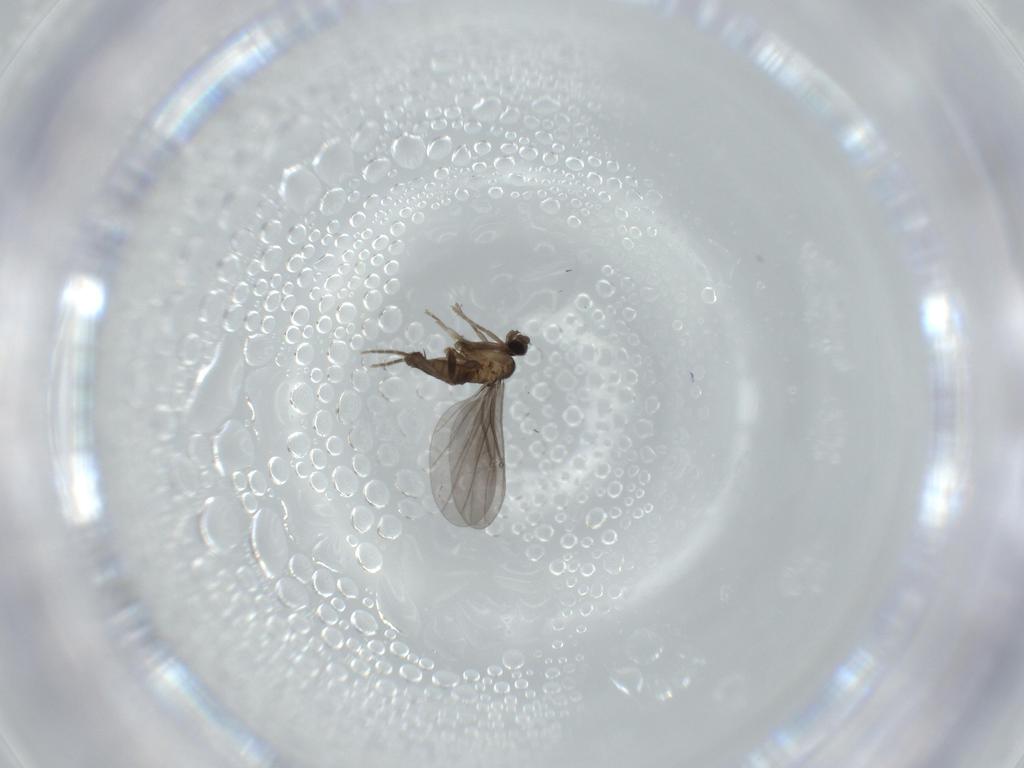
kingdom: Animalia
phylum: Arthropoda
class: Insecta
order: Diptera
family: Phoridae
